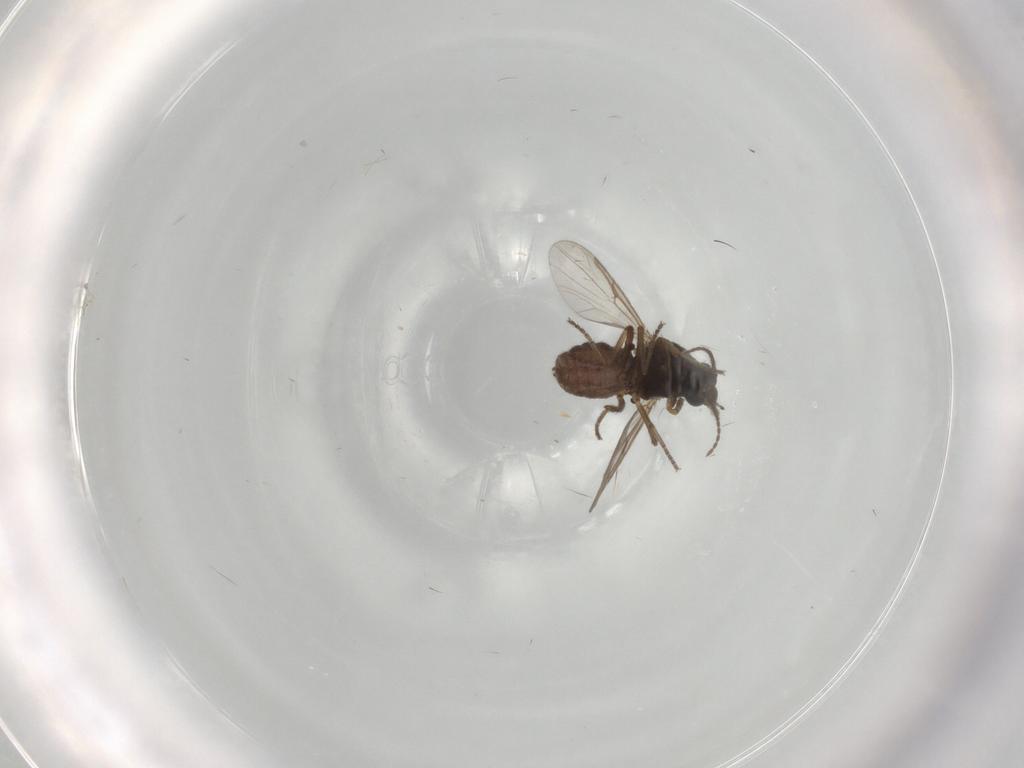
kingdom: Animalia
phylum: Arthropoda
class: Insecta
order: Diptera
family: Ceratopogonidae
